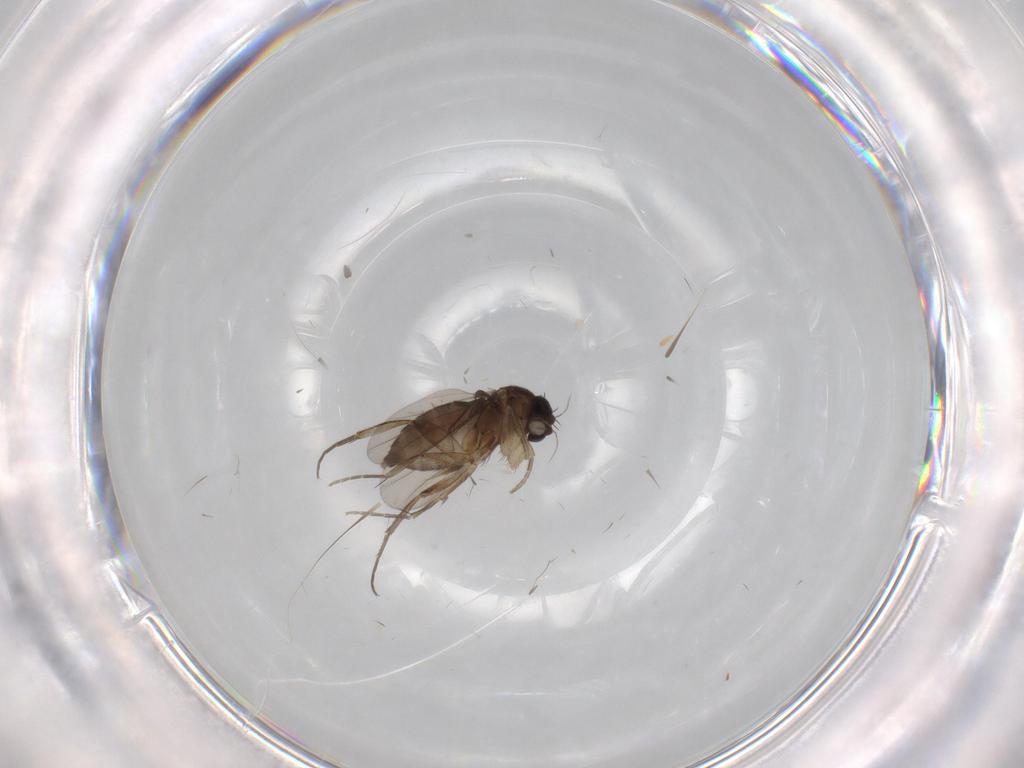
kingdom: Animalia
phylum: Arthropoda
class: Insecta
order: Diptera
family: Phoridae
